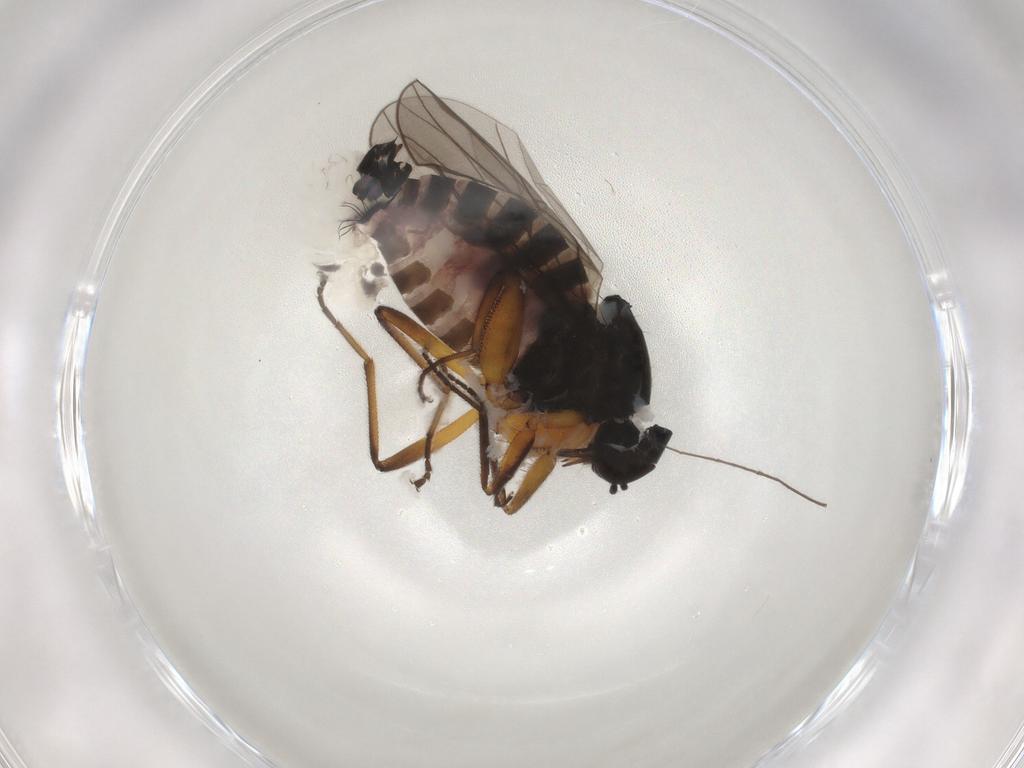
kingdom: Animalia
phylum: Arthropoda
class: Insecta
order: Diptera
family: Hybotidae
